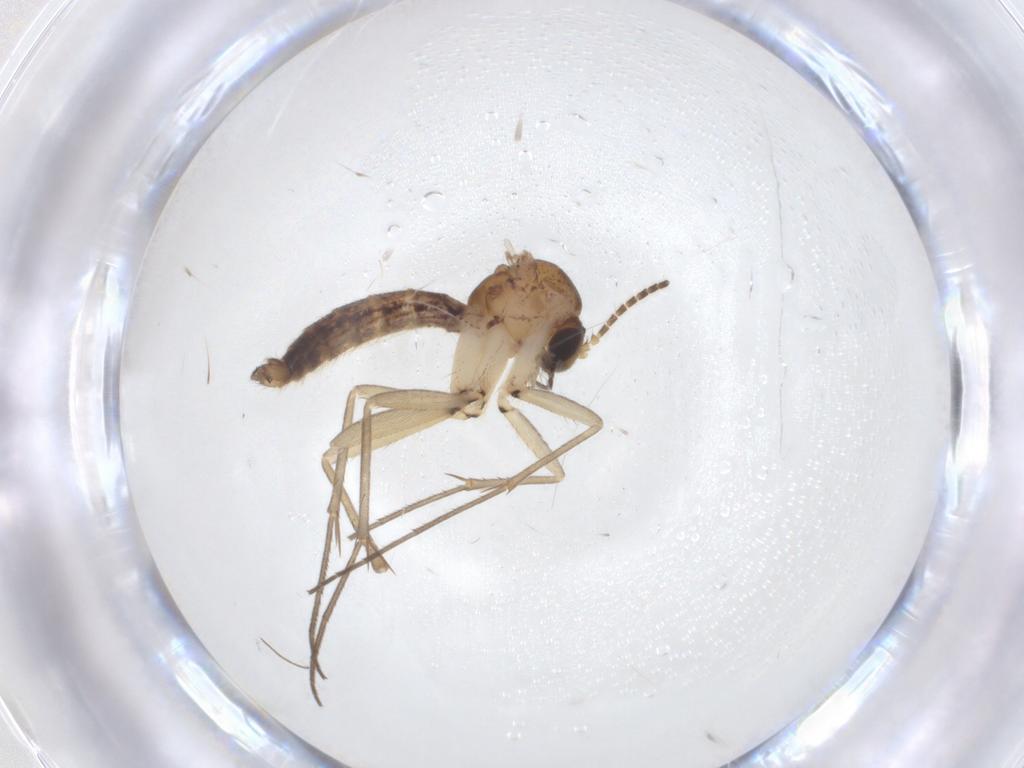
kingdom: Animalia
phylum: Arthropoda
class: Insecta
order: Diptera
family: Mycetophilidae
